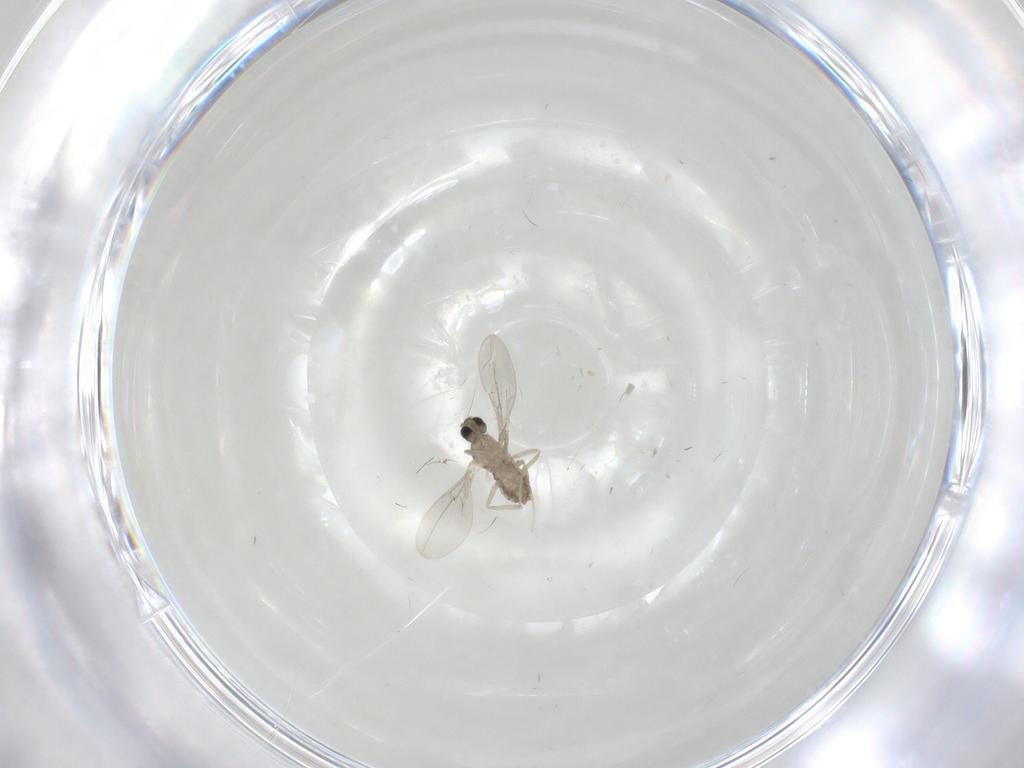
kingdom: Animalia
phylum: Arthropoda
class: Insecta
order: Diptera
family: Cecidomyiidae
